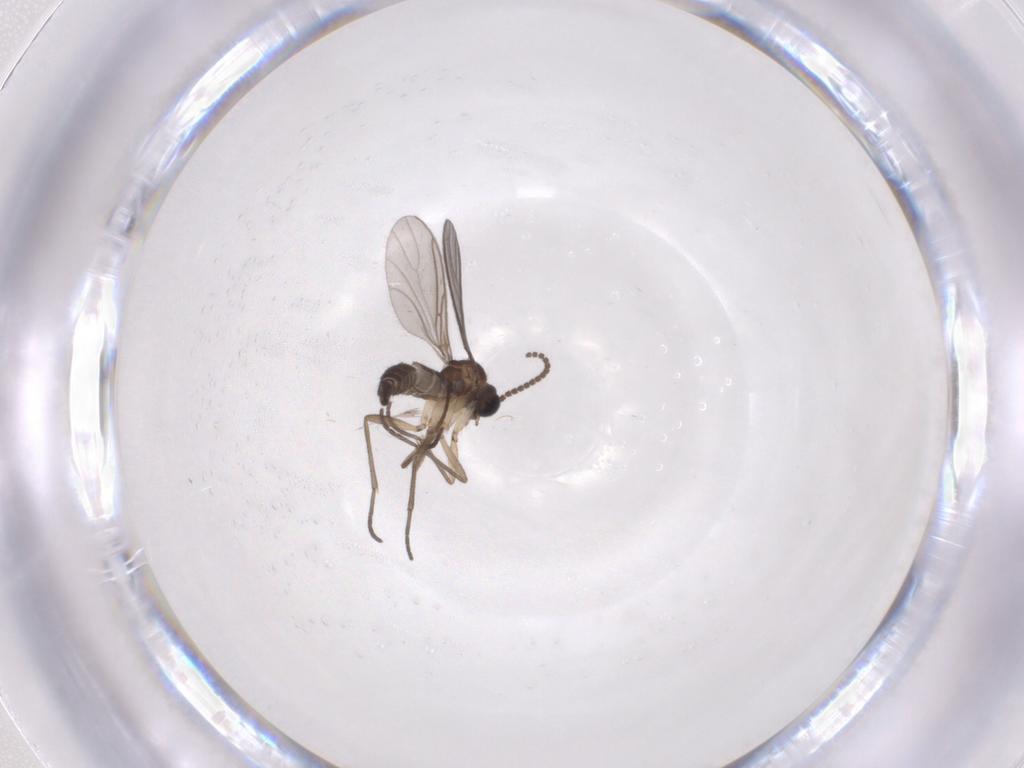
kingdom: Animalia
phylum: Arthropoda
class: Insecta
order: Diptera
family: Sciaridae
